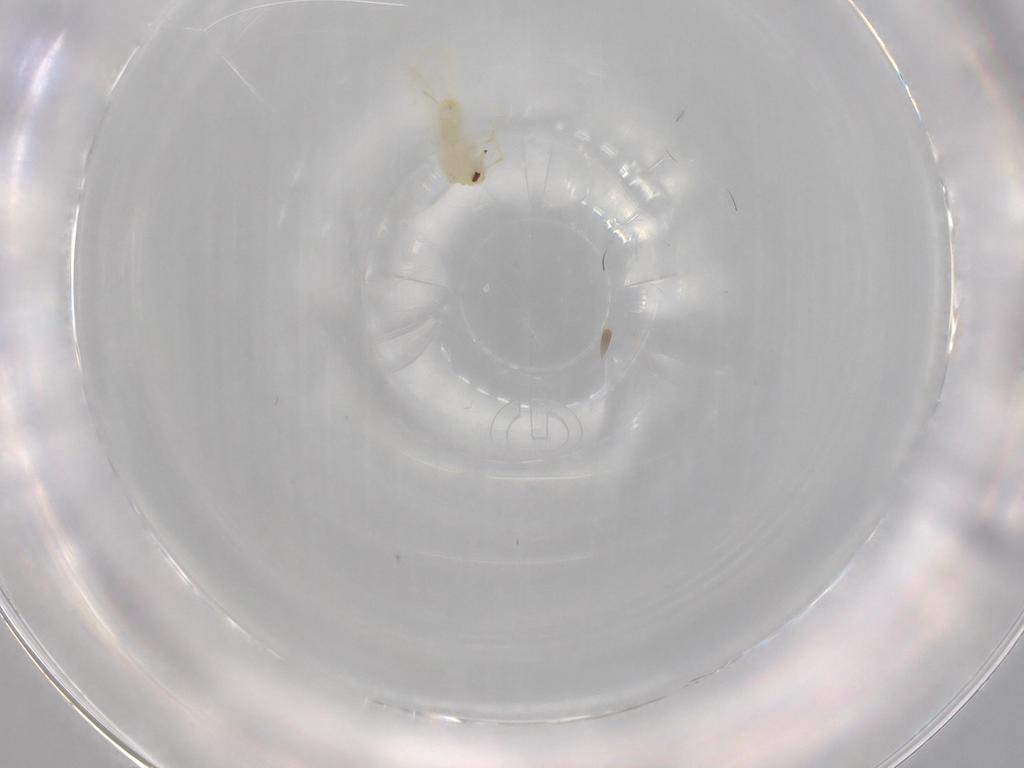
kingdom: Animalia
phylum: Arthropoda
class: Insecta
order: Hemiptera
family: Aleyrodidae
